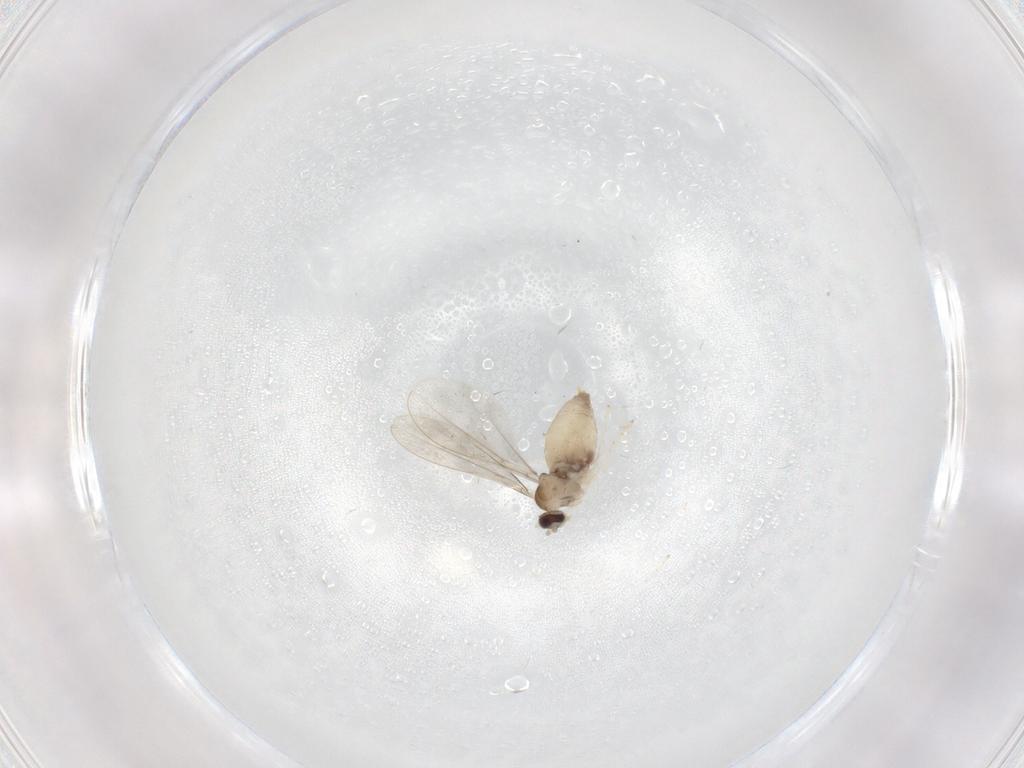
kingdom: Animalia
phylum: Arthropoda
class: Insecta
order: Diptera
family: Cecidomyiidae
